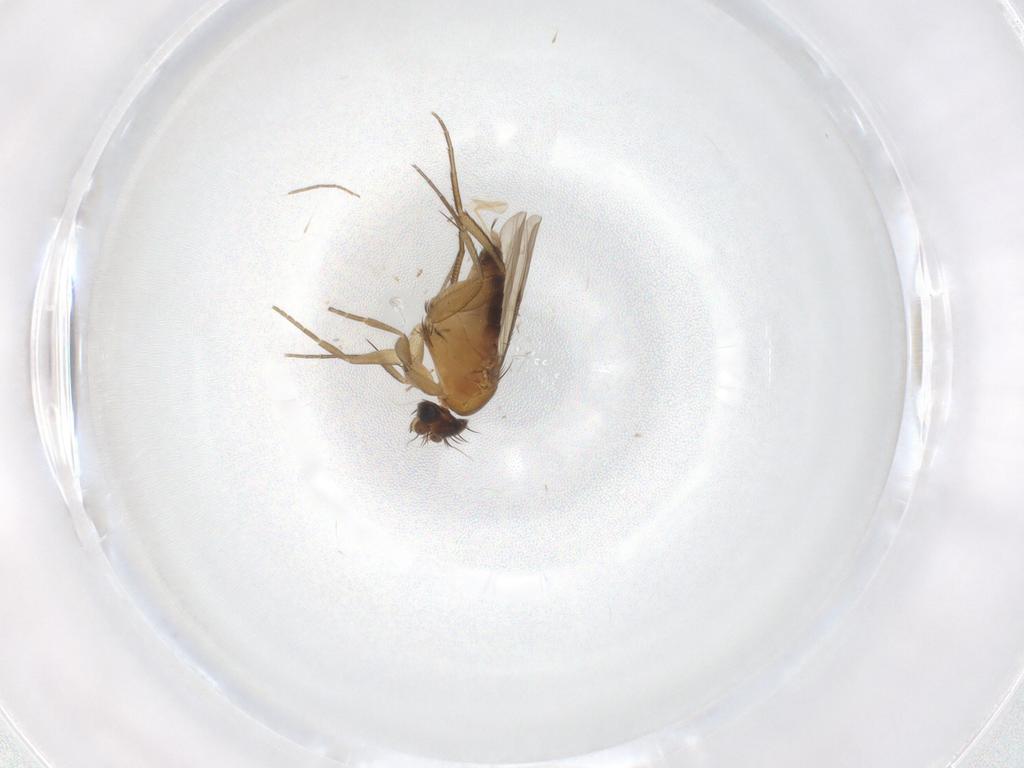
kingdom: Animalia
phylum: Arthropoda
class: Insecta
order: Diptera
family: Chironomidae
